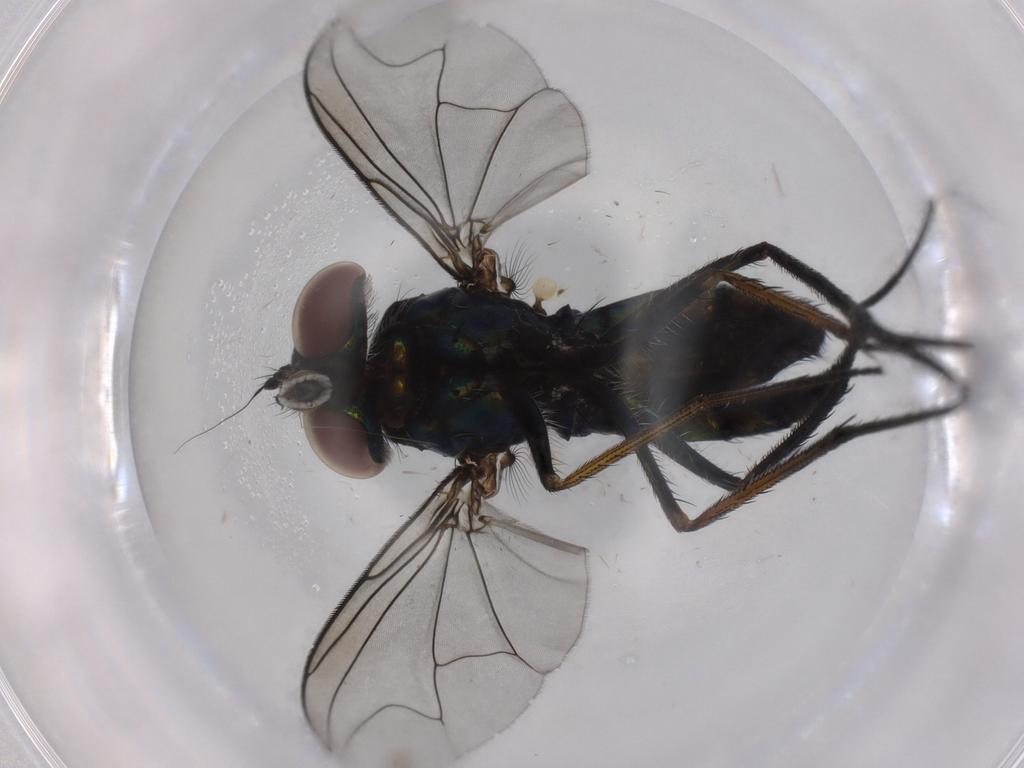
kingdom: Animalia
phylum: Arthropoda
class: Insecta
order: Diptera
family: Dolichopodidae
